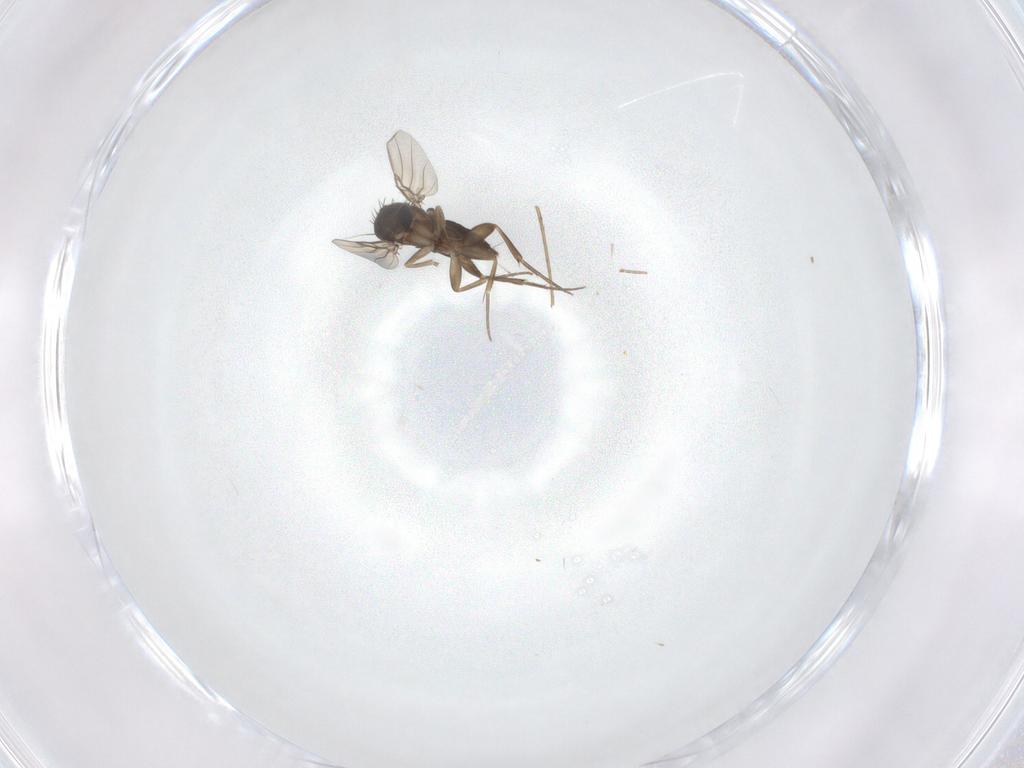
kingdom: Animalia
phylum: Arthropoda
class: Insecta
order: Diptera
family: Phoridae
